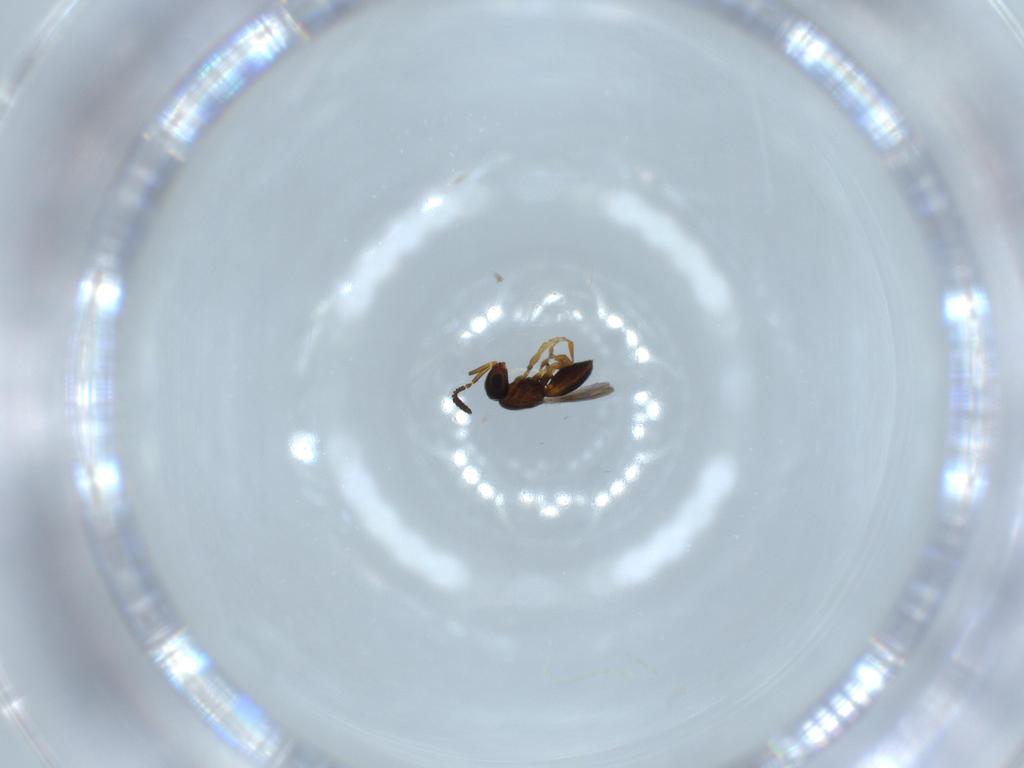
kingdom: Animalia
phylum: Arthropoda
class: Insecta
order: Hymenoptera
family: Scelionidae
